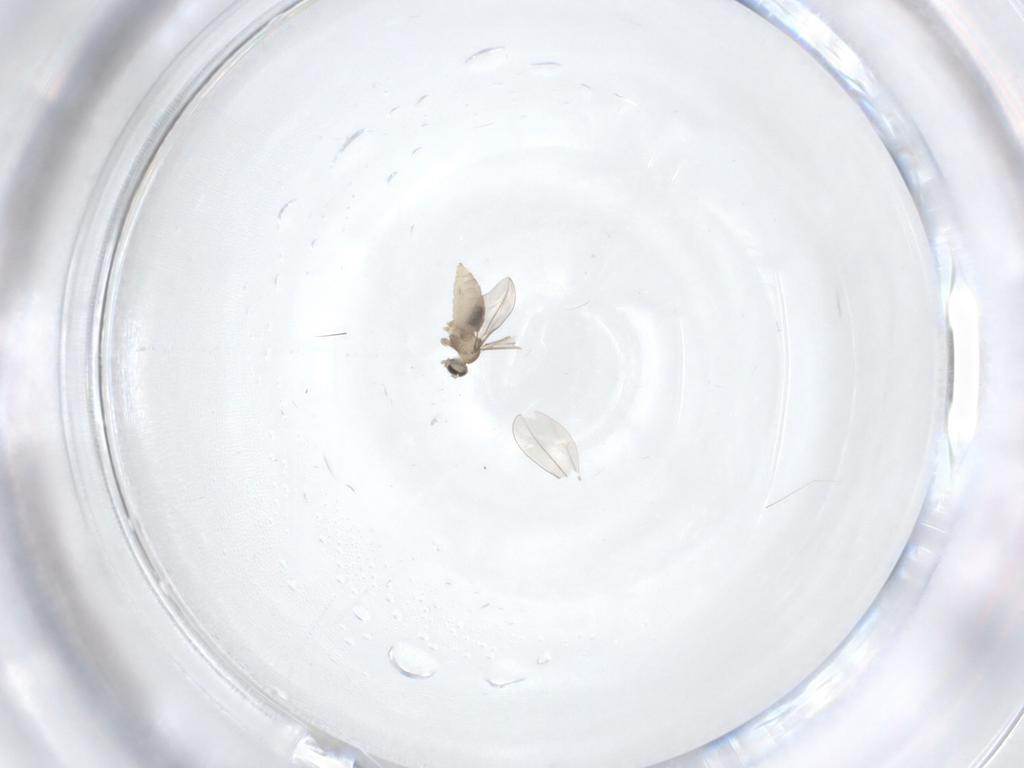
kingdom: Animalia
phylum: Arthropoda
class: Insecta
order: Diptera
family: Cecidomyiidae
